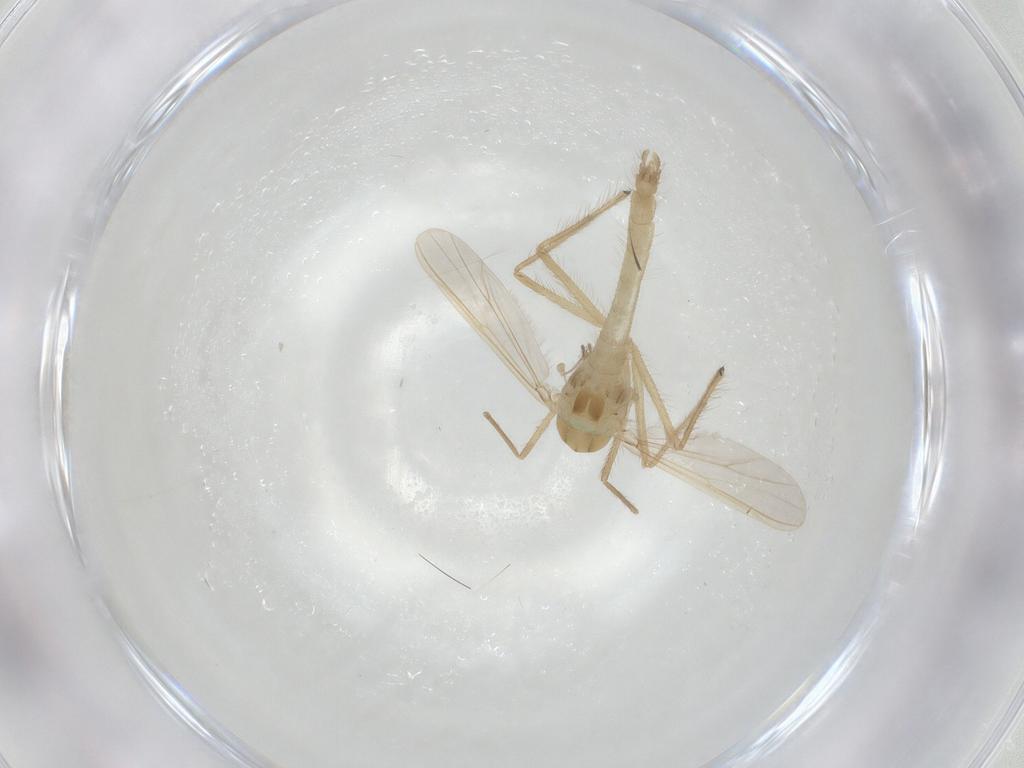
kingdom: Animalia
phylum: Arthropoda
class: Insecta
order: Diptera
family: Chironomidae
